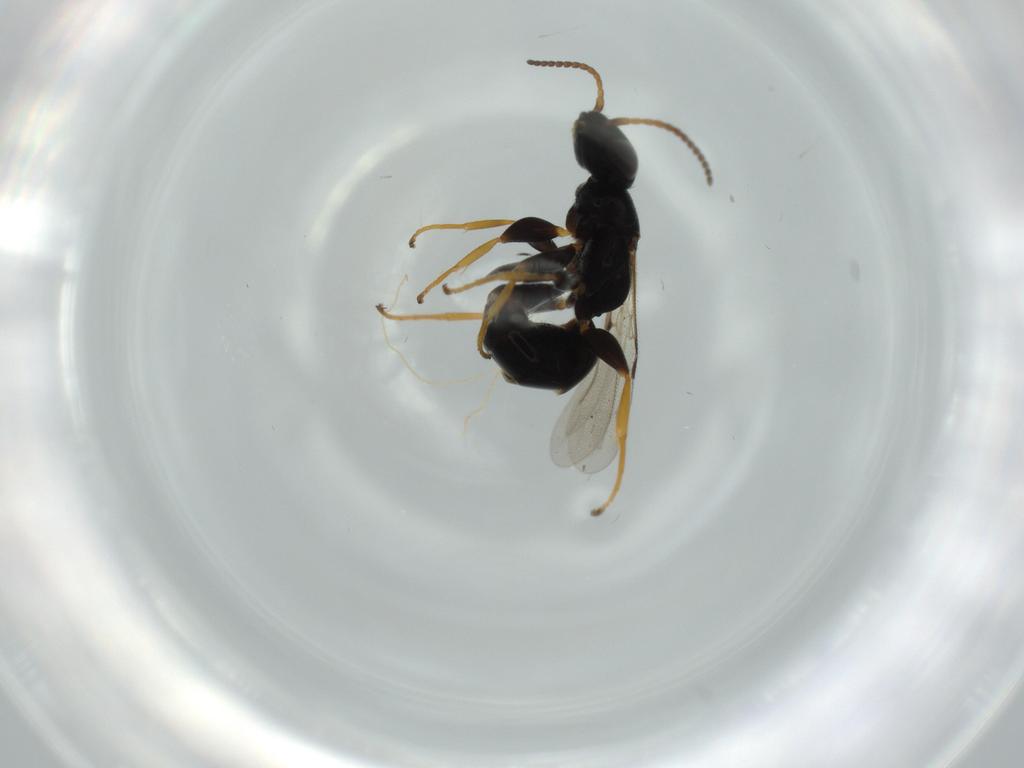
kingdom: Animalia
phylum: Arthropoda
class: Insecta
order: Hymenoptera
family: Bethylidae
